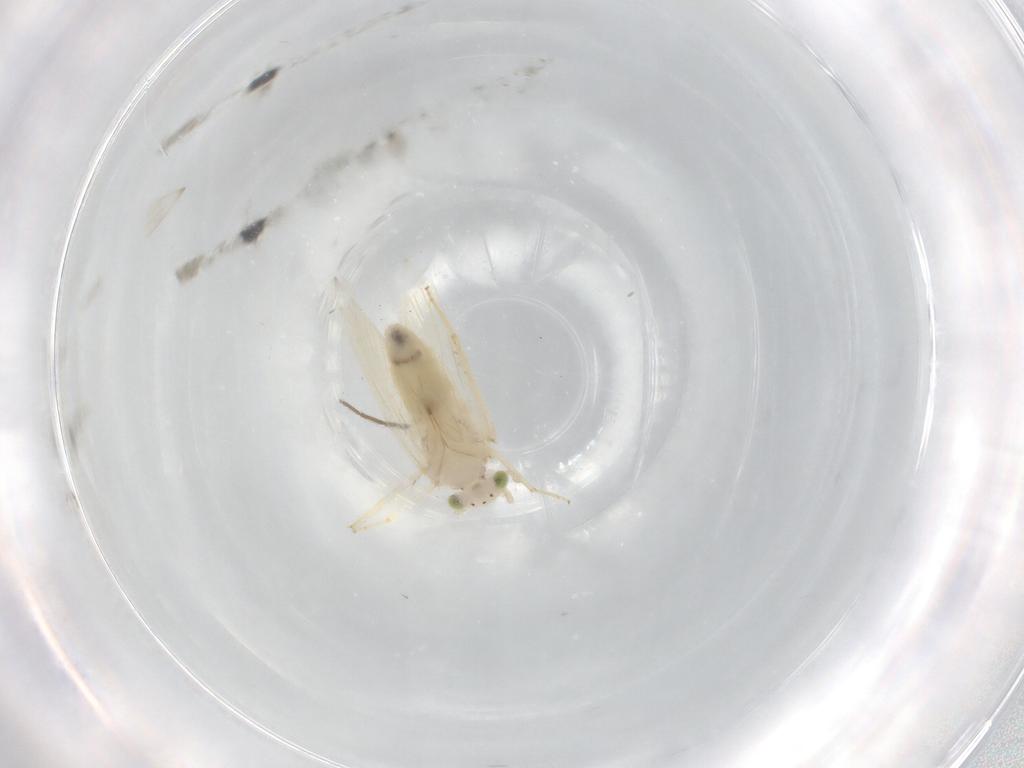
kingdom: Animalia
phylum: Arthropoda
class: Insecta
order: Psocodea
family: Lepidopsocidae
